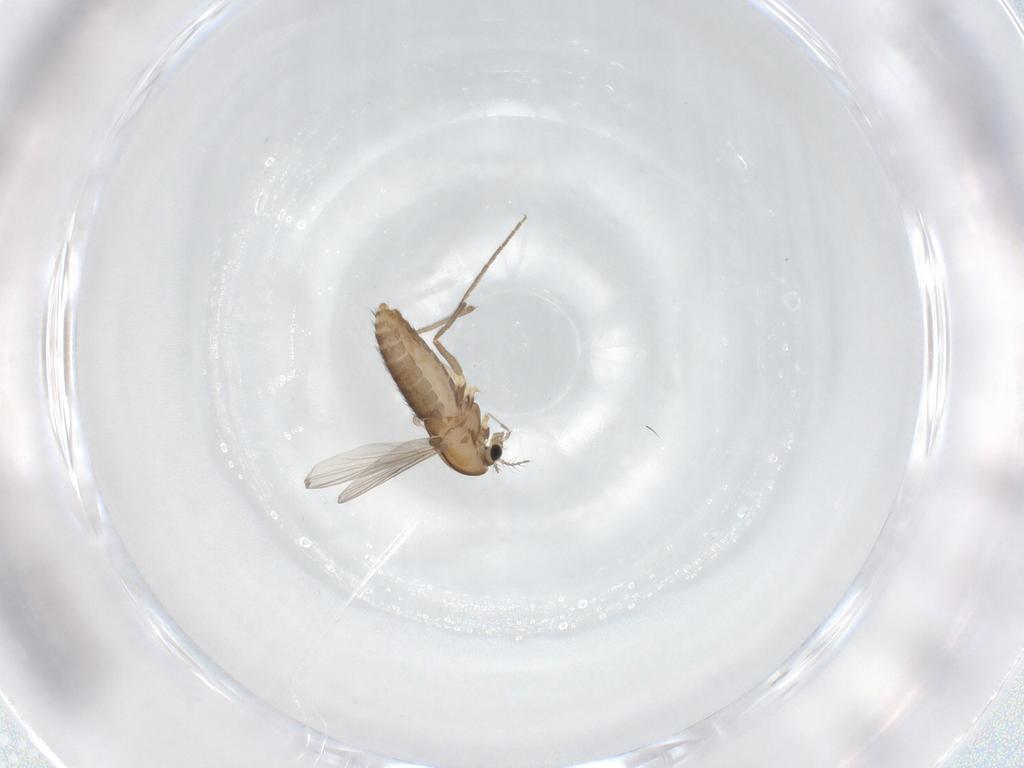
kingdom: Animalia
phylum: Arthropoda
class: Insecta
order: Diptera
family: Chironomidae
